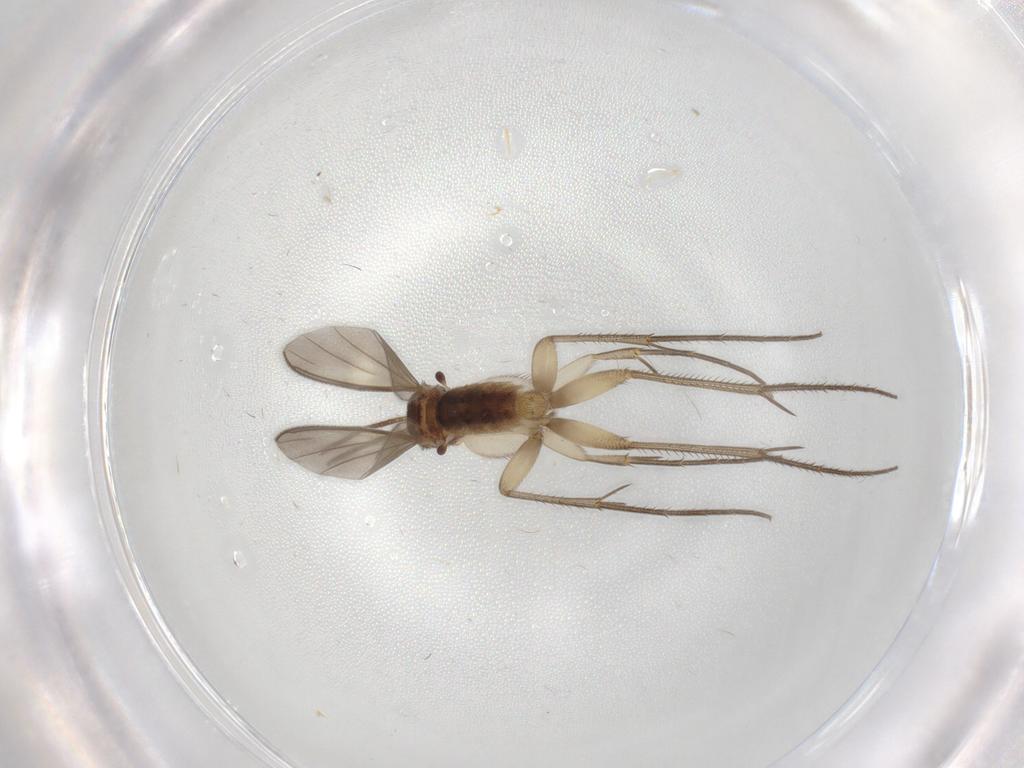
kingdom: Animalia
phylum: Arthropoda
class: Insecta
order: Diptera
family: Mycetophilidae
